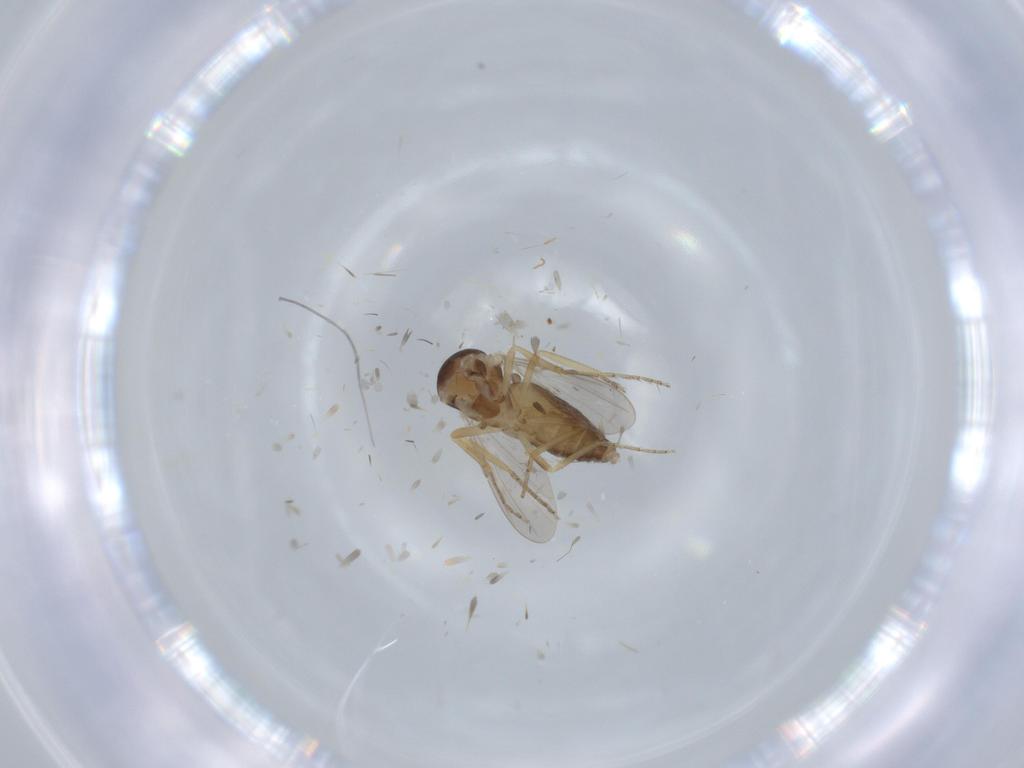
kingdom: Animalia
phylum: Arthropoda
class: Insecta
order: Diptera
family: Ceratopogonidae
